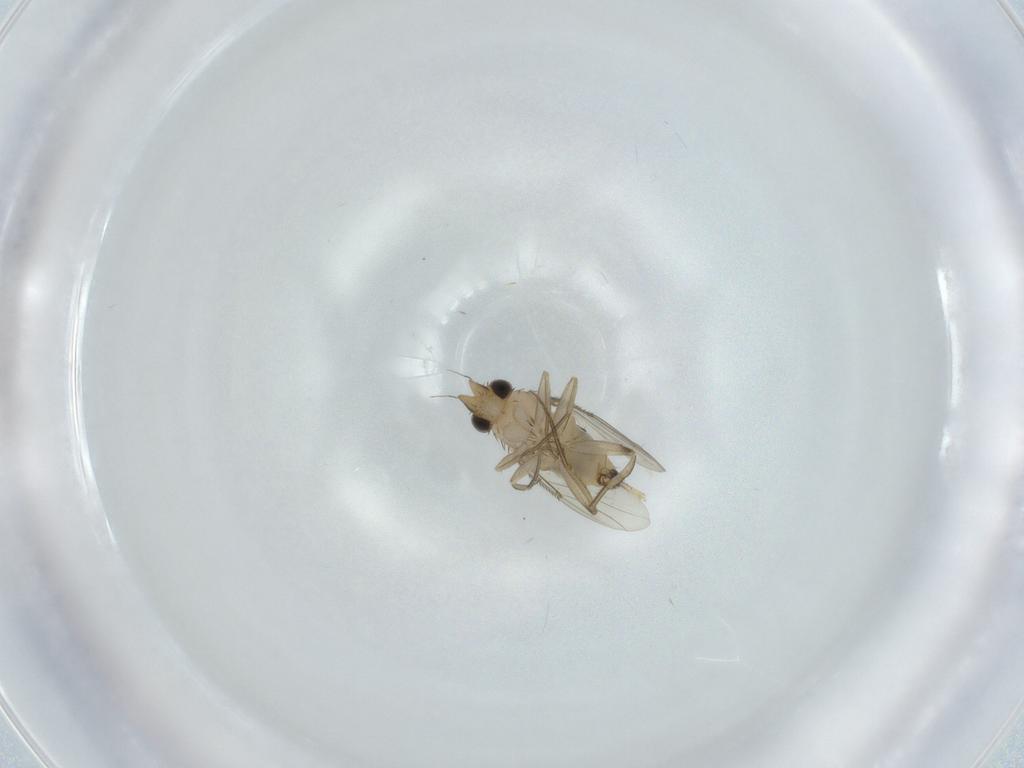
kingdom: Animalia
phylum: Arthropoda
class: Insecta
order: Diptera
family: Phoridae
